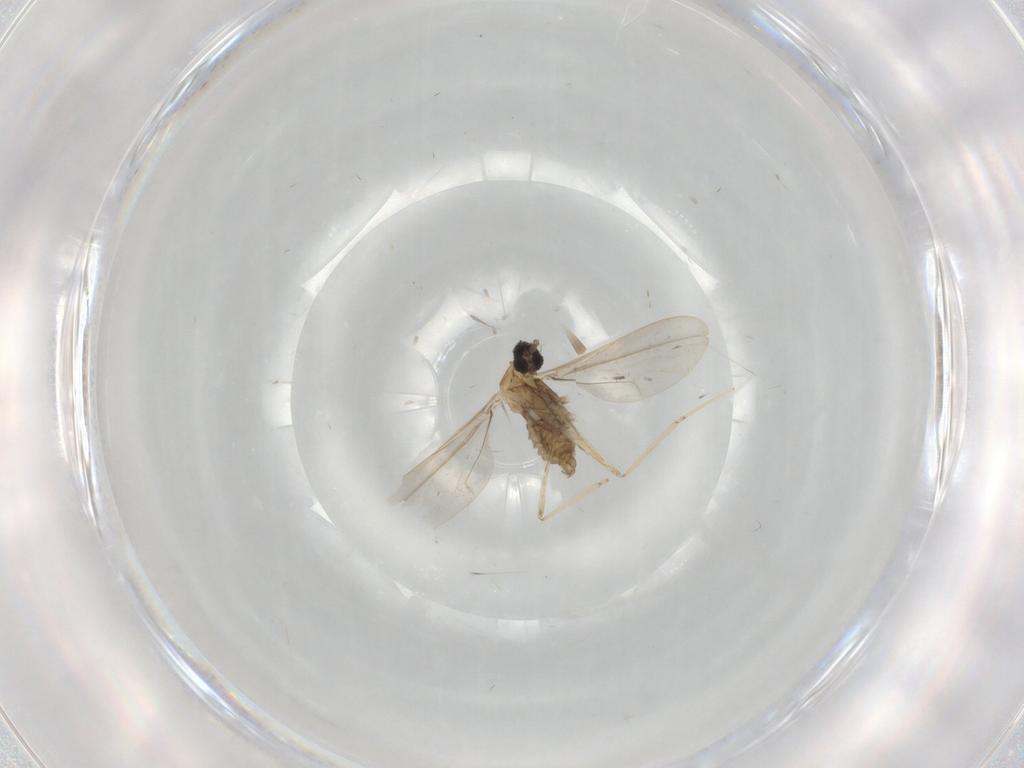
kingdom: Animalia
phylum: Arthropoda
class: Insecta
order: Diptera
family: Cecidomyiidae
